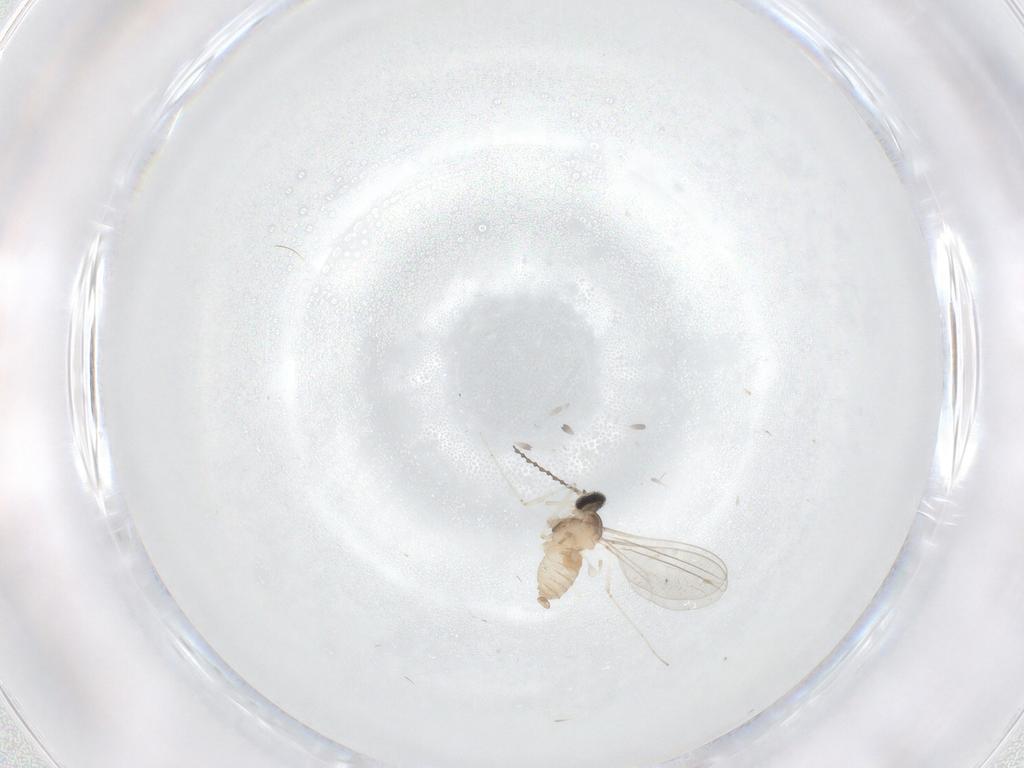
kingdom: Animalia
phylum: Arthropoda
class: Insecta
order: Diptera
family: Cecidomyiidae
